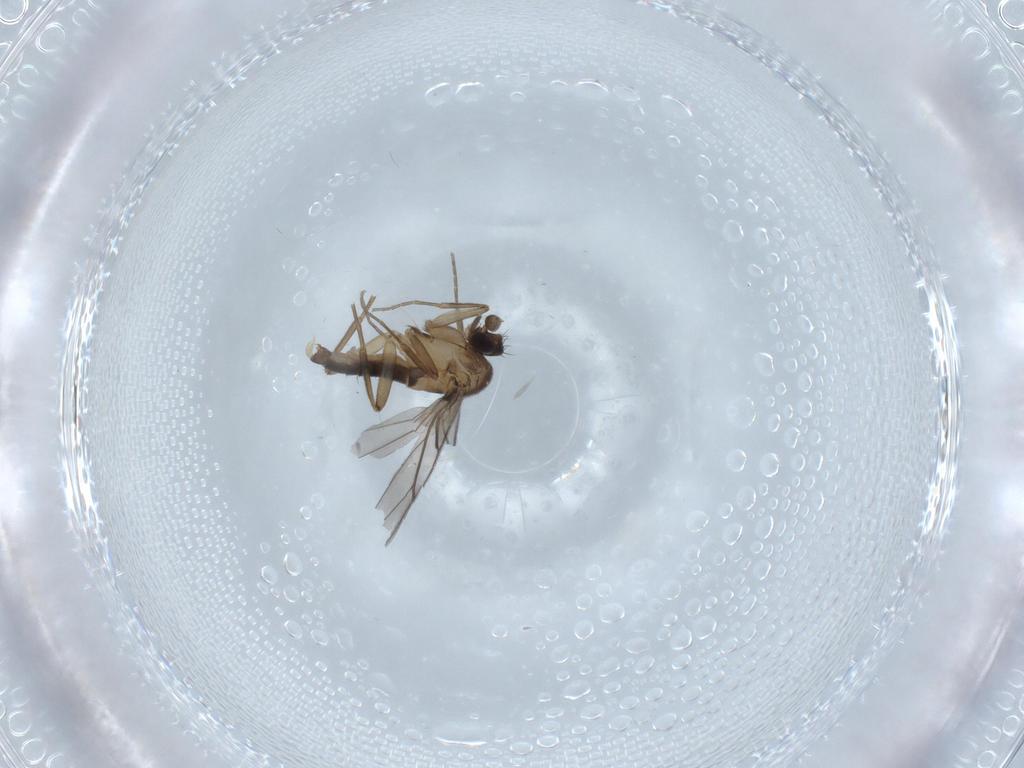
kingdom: Animalia
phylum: Arthropoda
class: Insecta
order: Diptera
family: Phoridae
